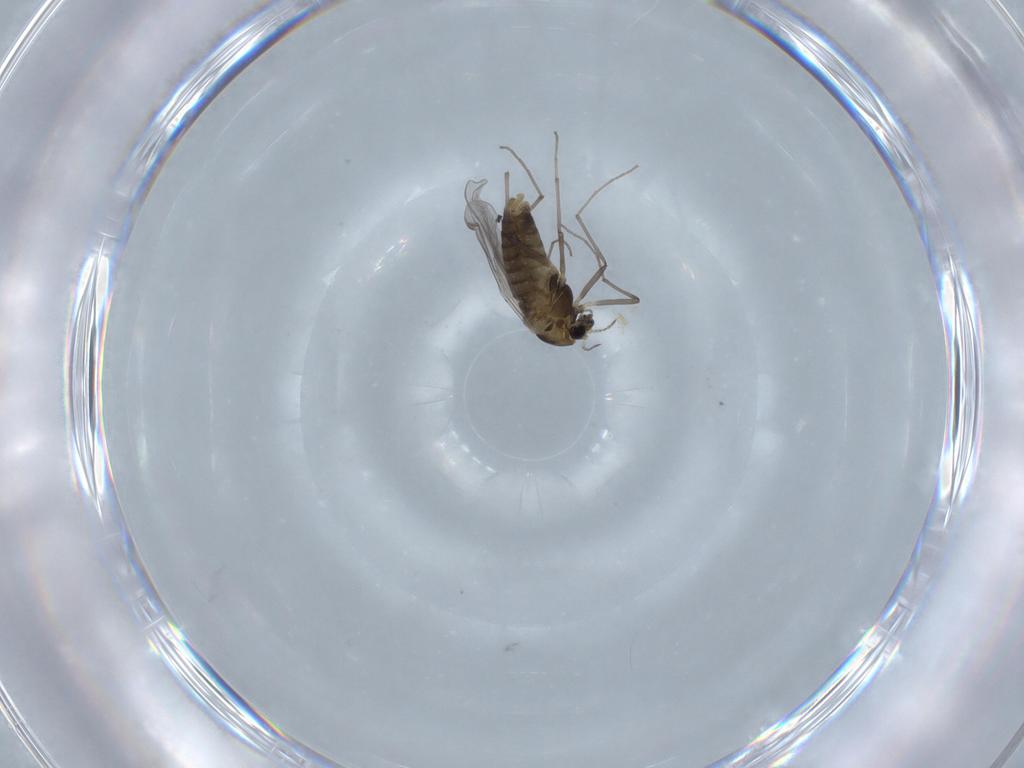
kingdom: Animalia
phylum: Arthropoda
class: Insecta
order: Diptera
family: Chironomidae
